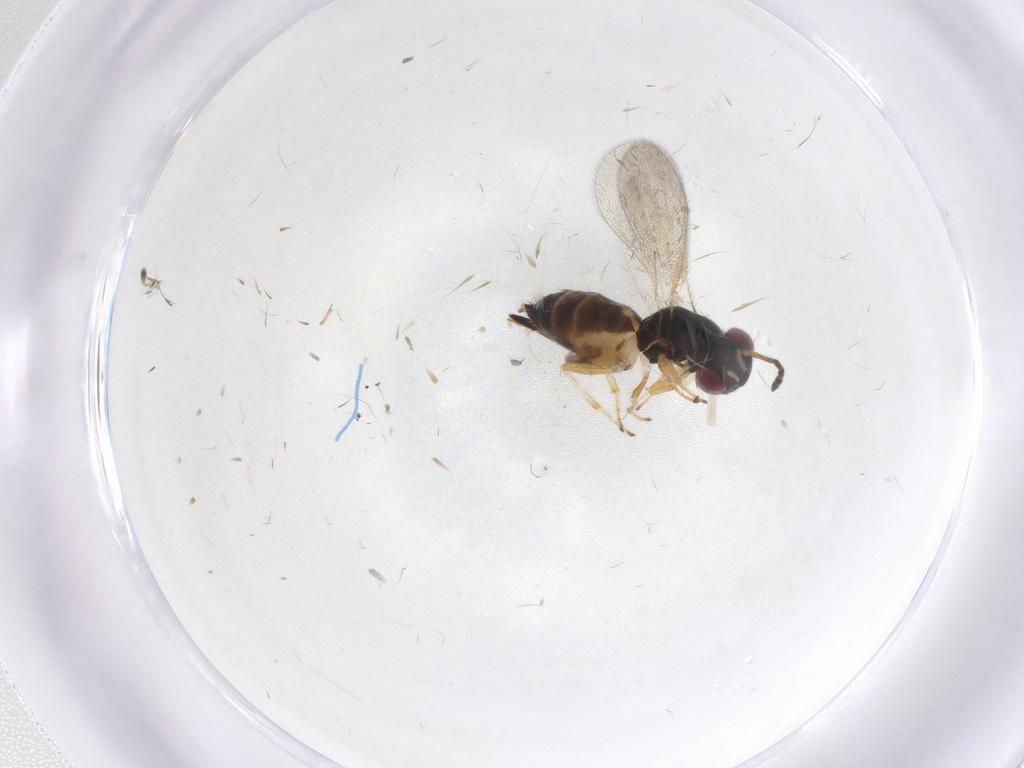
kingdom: Animalia
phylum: Arthropoda
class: Insecta
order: Hymenoptera
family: Eulophidae
